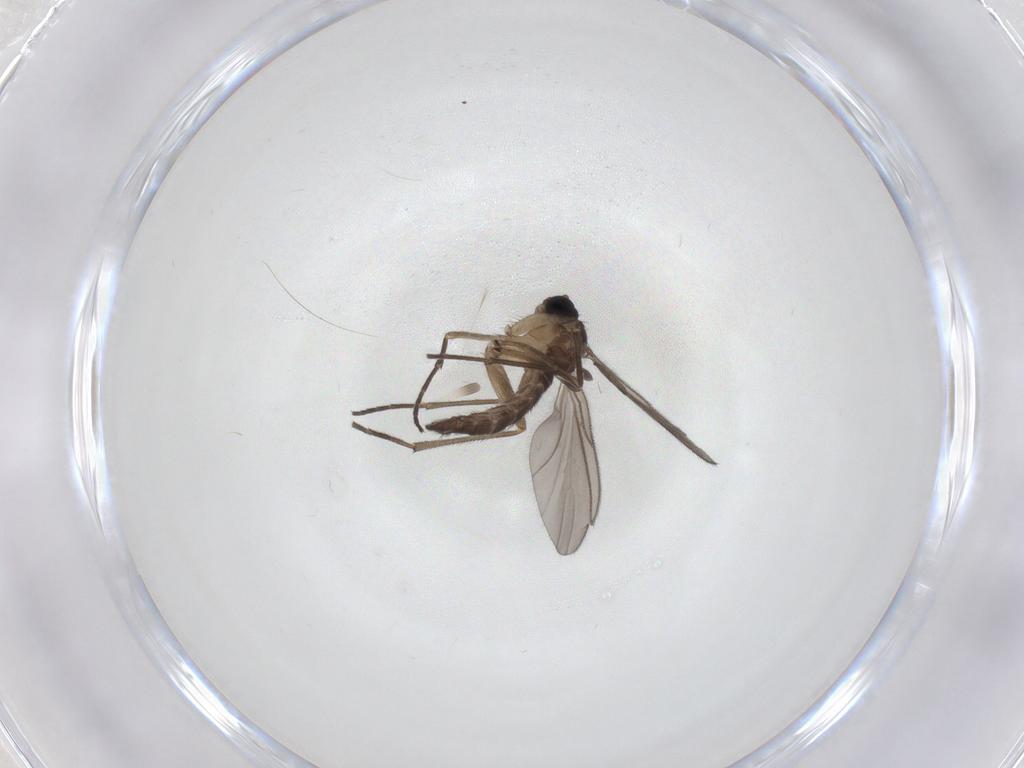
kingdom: Animalia
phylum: Arthropoda
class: Insecta
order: Diptera
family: Sciaridae
